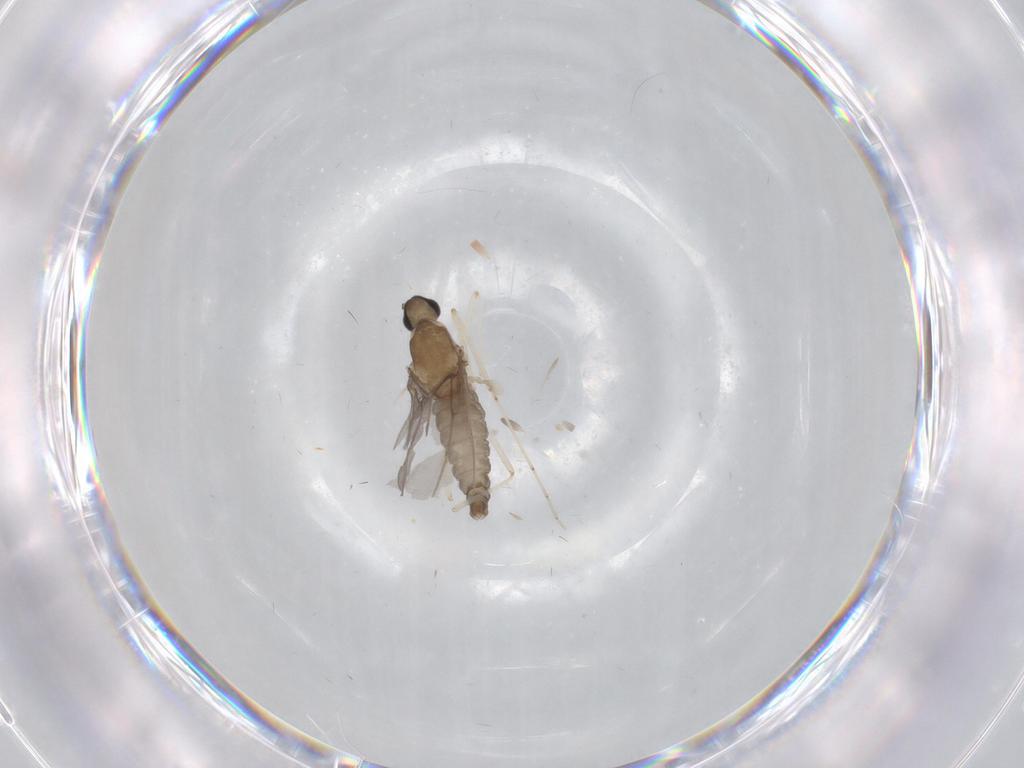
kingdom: Animalia
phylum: Arthropoda
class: Insecta
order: Diptera
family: Cecidomyiidae
